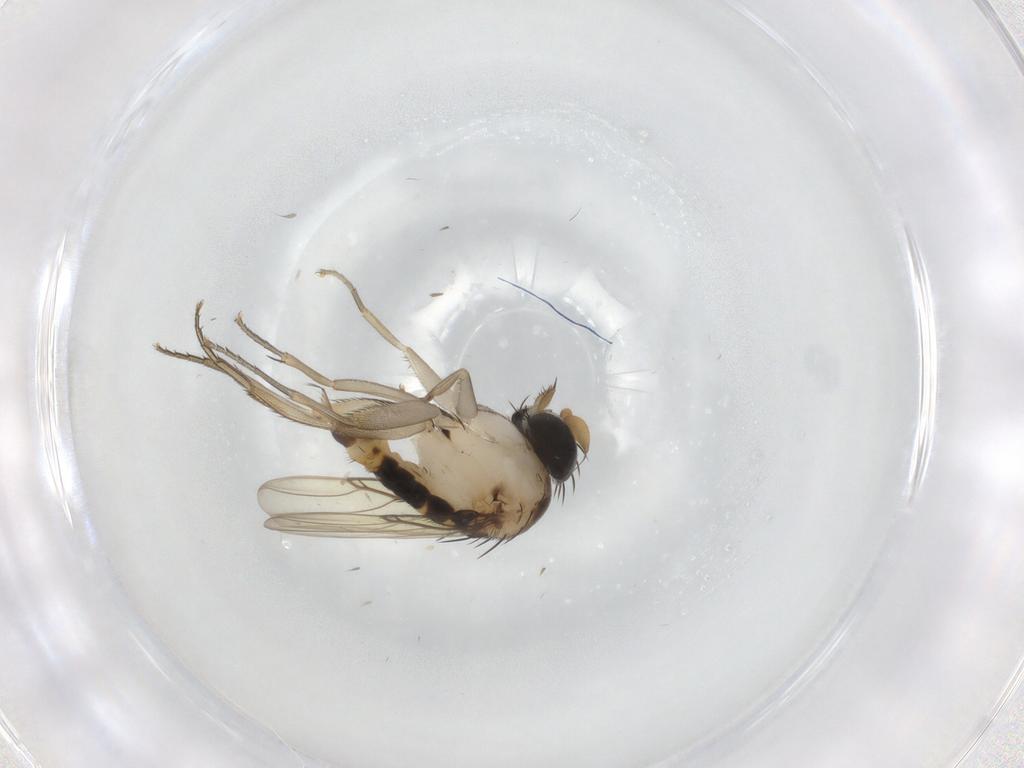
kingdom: Animalia
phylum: Arthropoda
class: Insecta
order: Diptera
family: Phoridae
